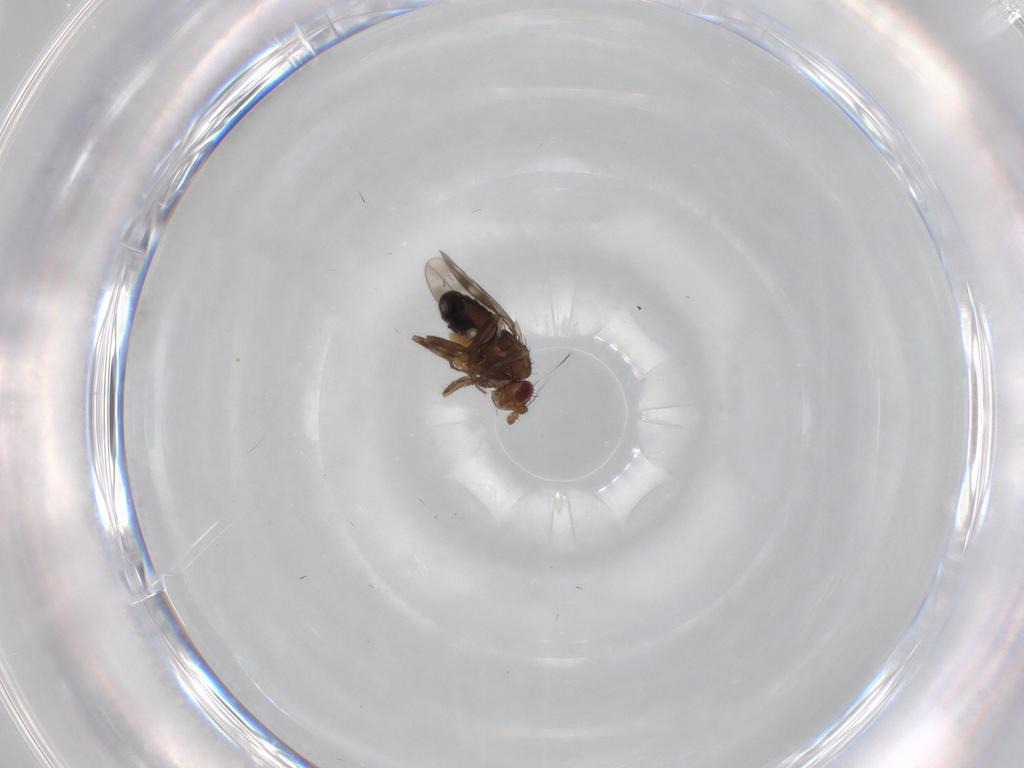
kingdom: Animalia
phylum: Arthropoda
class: Insecta
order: Diptera
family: Sphaeroceridae
